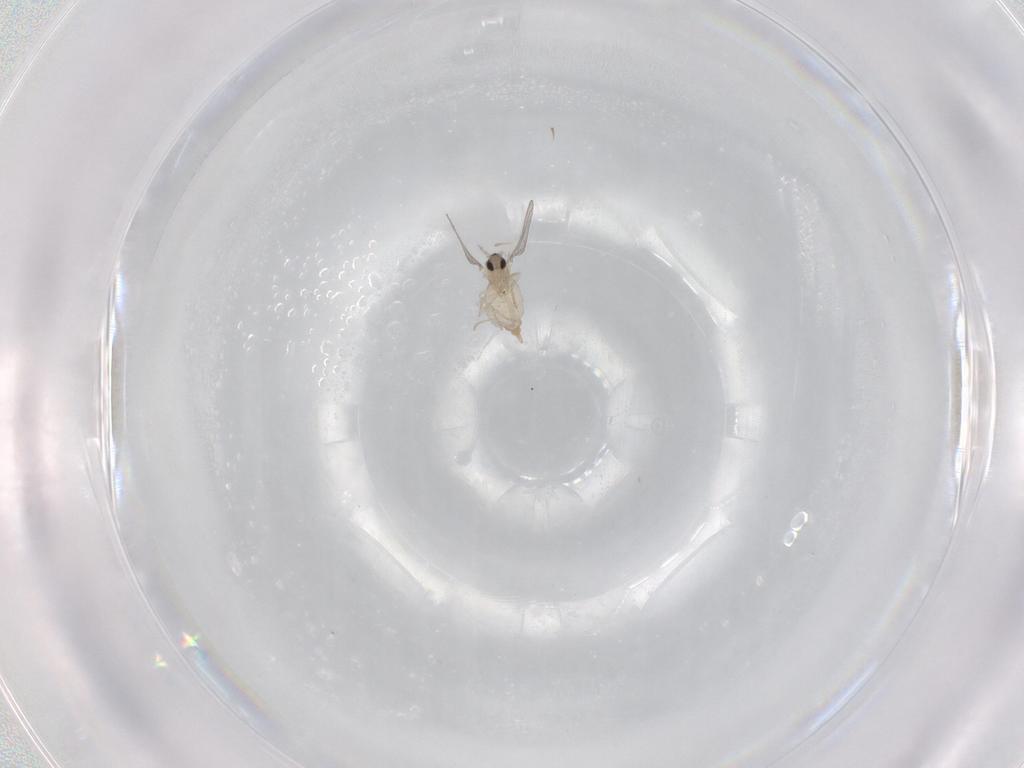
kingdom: Animalia
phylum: Arthropoda
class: Insecta
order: Diptera
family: Cecidomyiidae
